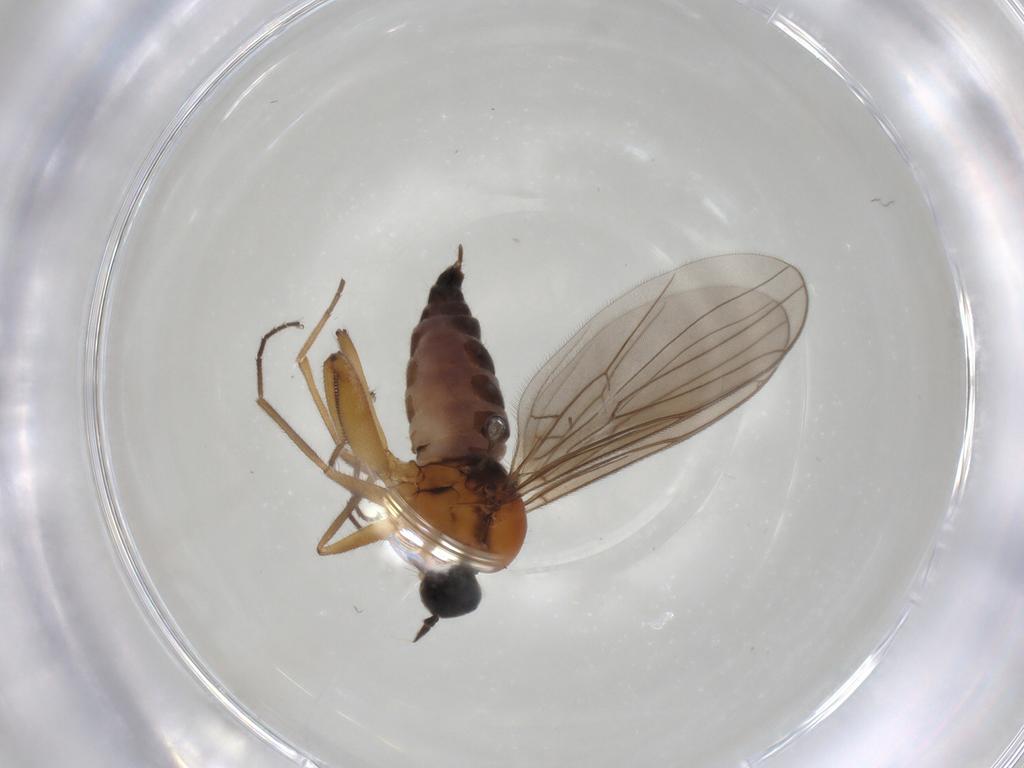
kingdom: Animalia
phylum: Arthropoda
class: Insecta
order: Diptera
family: Hybotidae
